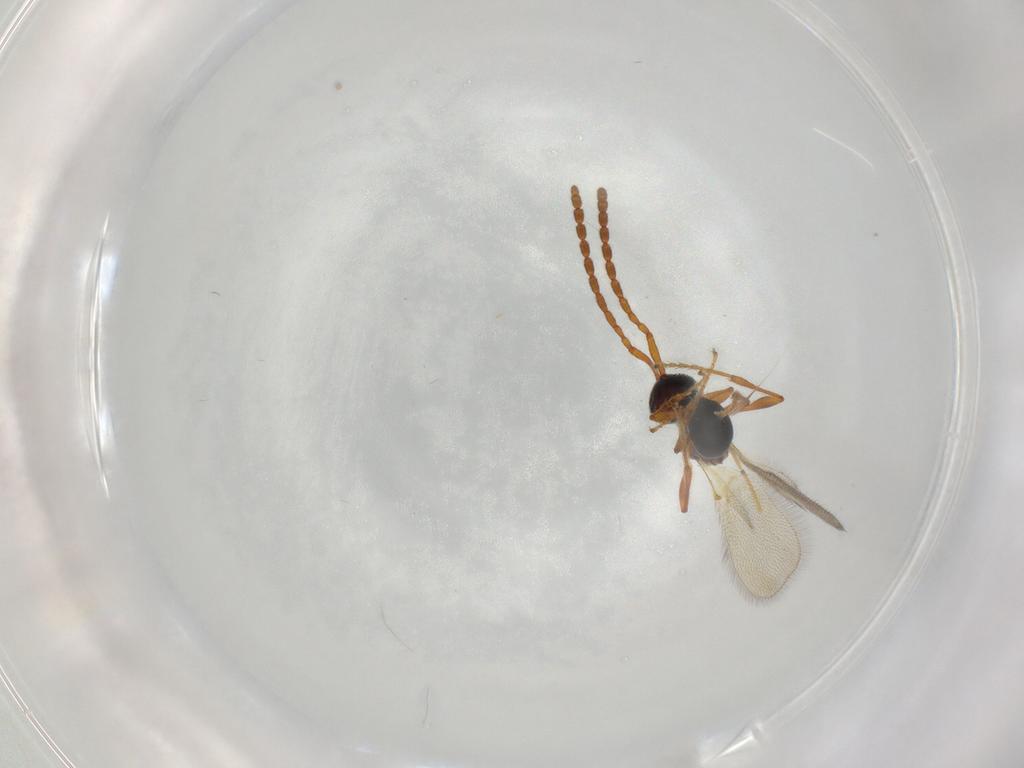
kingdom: Animalia
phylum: Arthropoda
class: Insecta
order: Hymenoptera
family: Diapriidae
